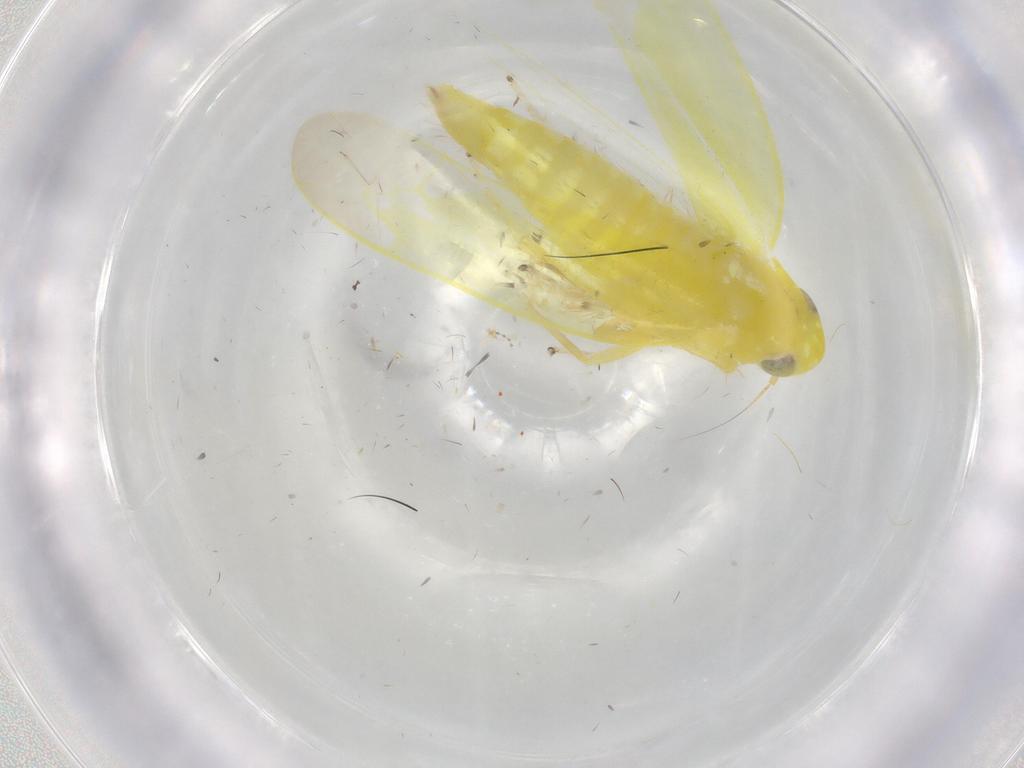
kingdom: Animalia
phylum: Arthropoda
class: Insecta
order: Hemiptera
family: Cicadellidae
